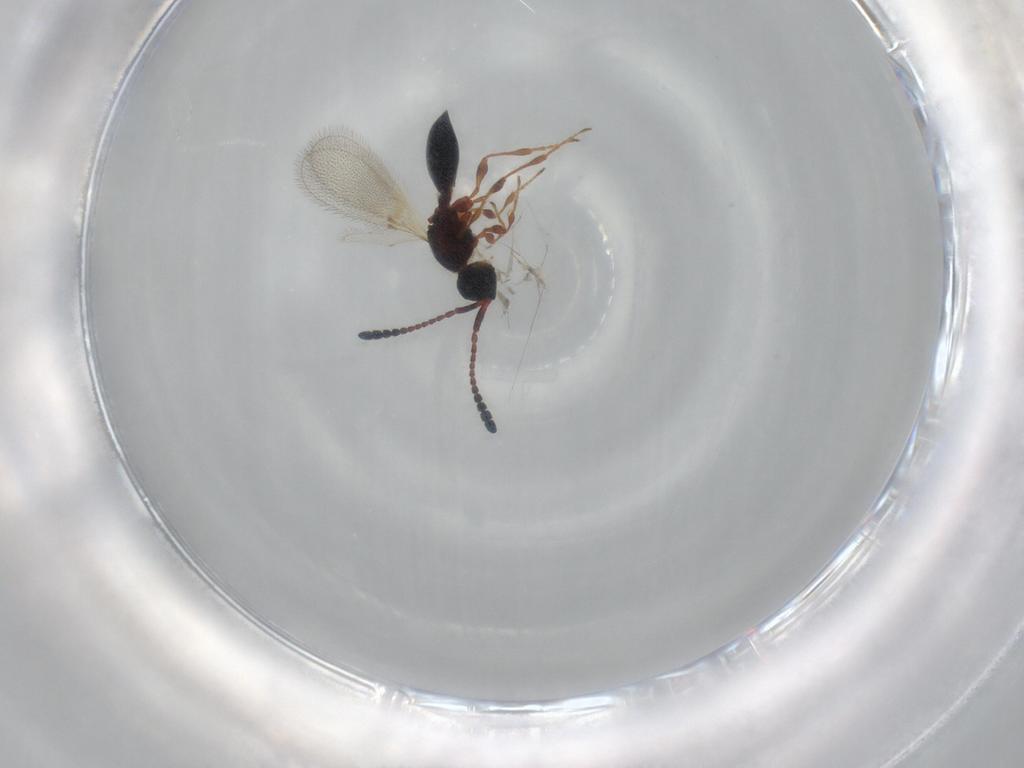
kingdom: Animalia
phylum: Arthropoda
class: Insecta
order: Hymenoptera
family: Diapriidae
